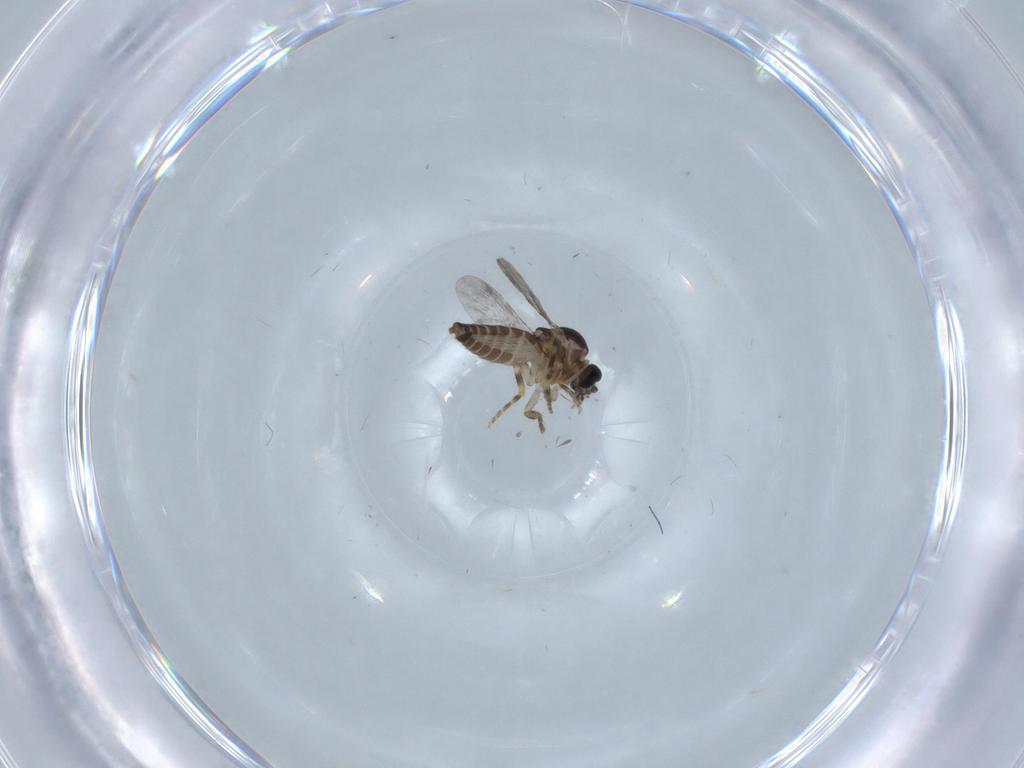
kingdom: Animalia
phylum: Arthropoda
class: Insecta
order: Diptera
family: Ceratopogonidae
